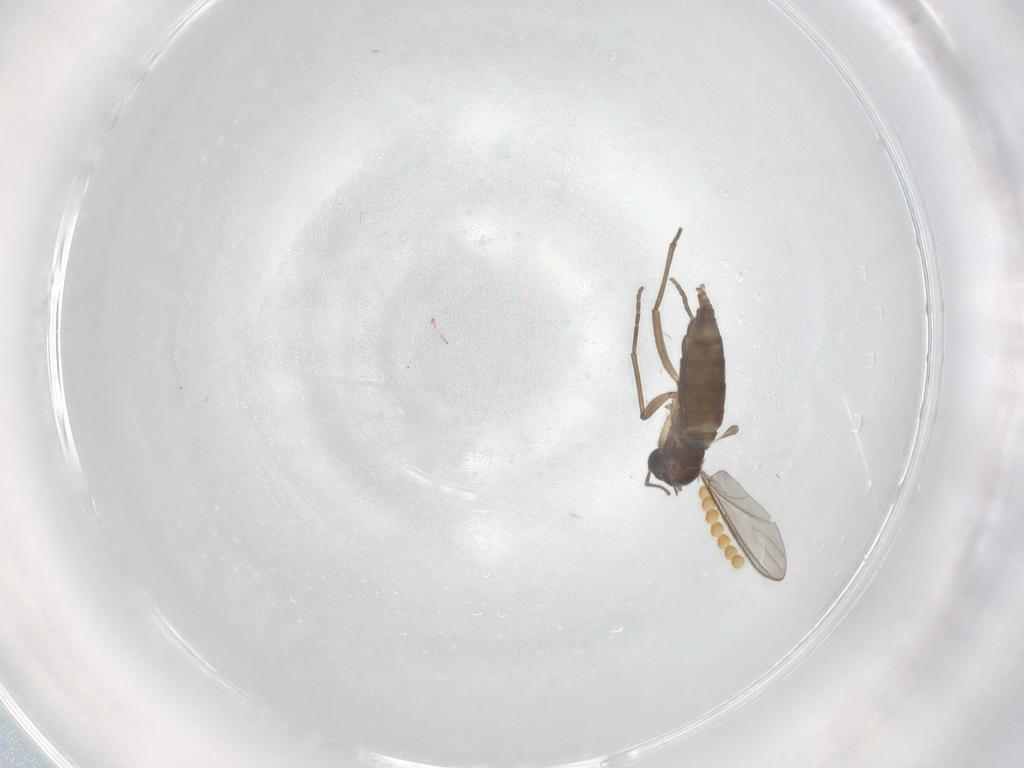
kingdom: Animalia
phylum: Arthropoda
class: Insecta
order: Diptera
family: Sciaridae
